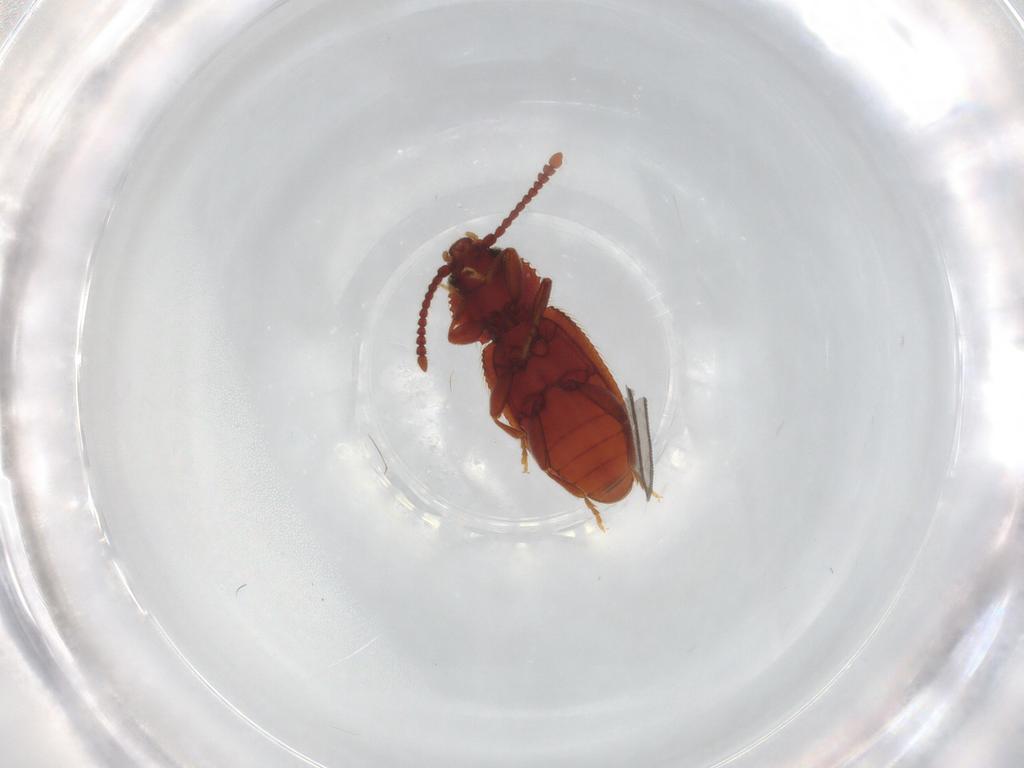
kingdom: Animalia
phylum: Arthropoda
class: Insecta
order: Coleoptera
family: Silvanidae
